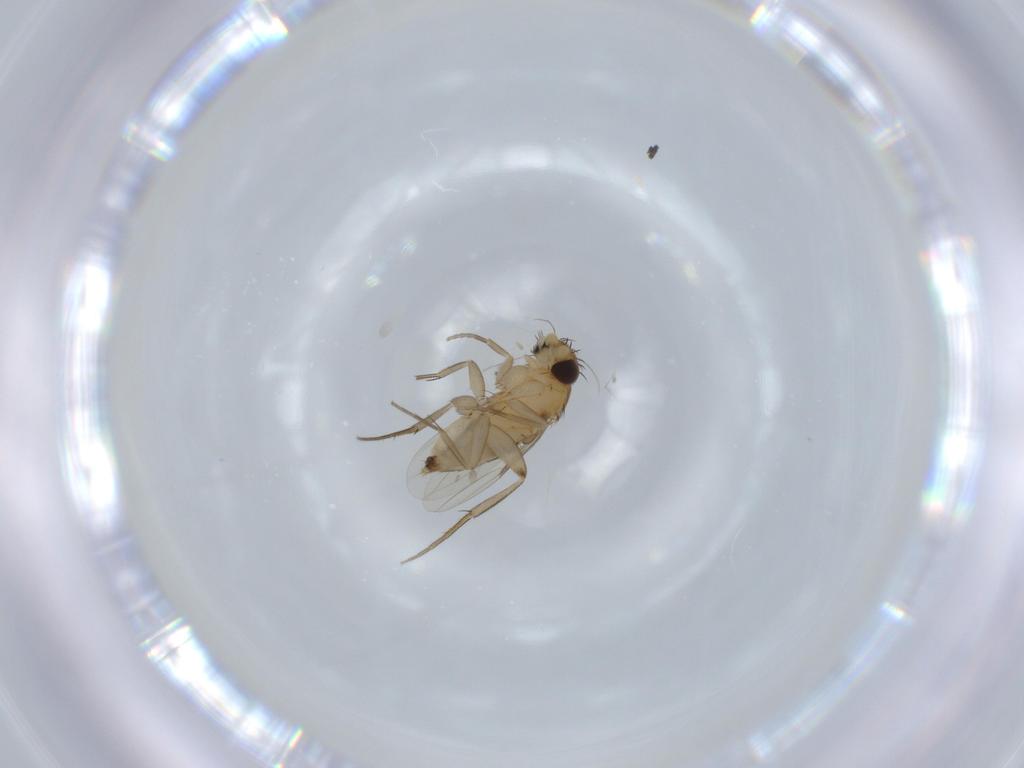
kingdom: Animalia
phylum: Arthropoda
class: Insecta
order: Diptera
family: Phoridae
